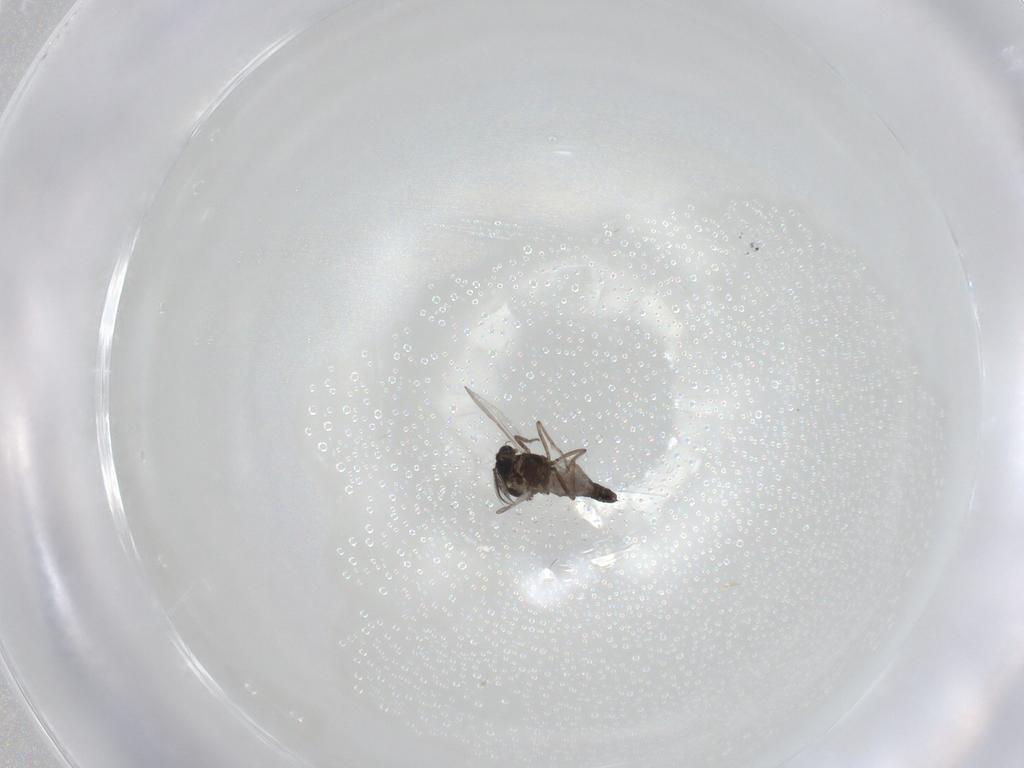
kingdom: Animalia
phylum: Arthropoda
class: Insecta
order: Diptera
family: Ceratopogonidae
